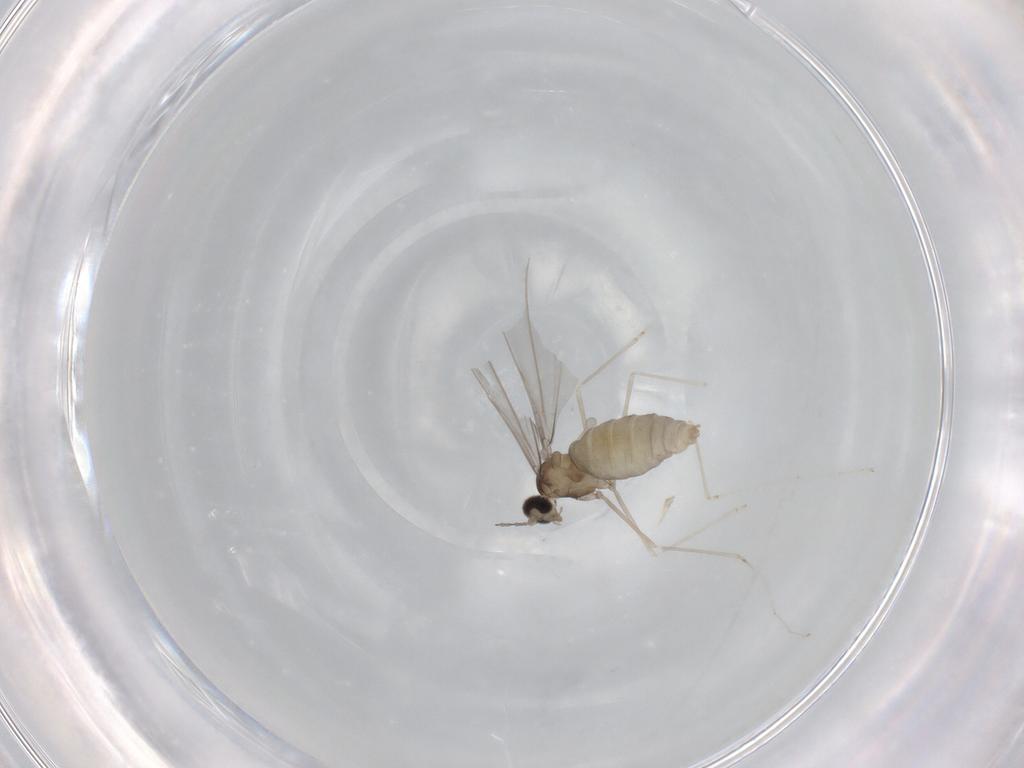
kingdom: Animalia
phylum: Arthropoda
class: Insecta
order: Diptera
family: Cecidomyiidae
